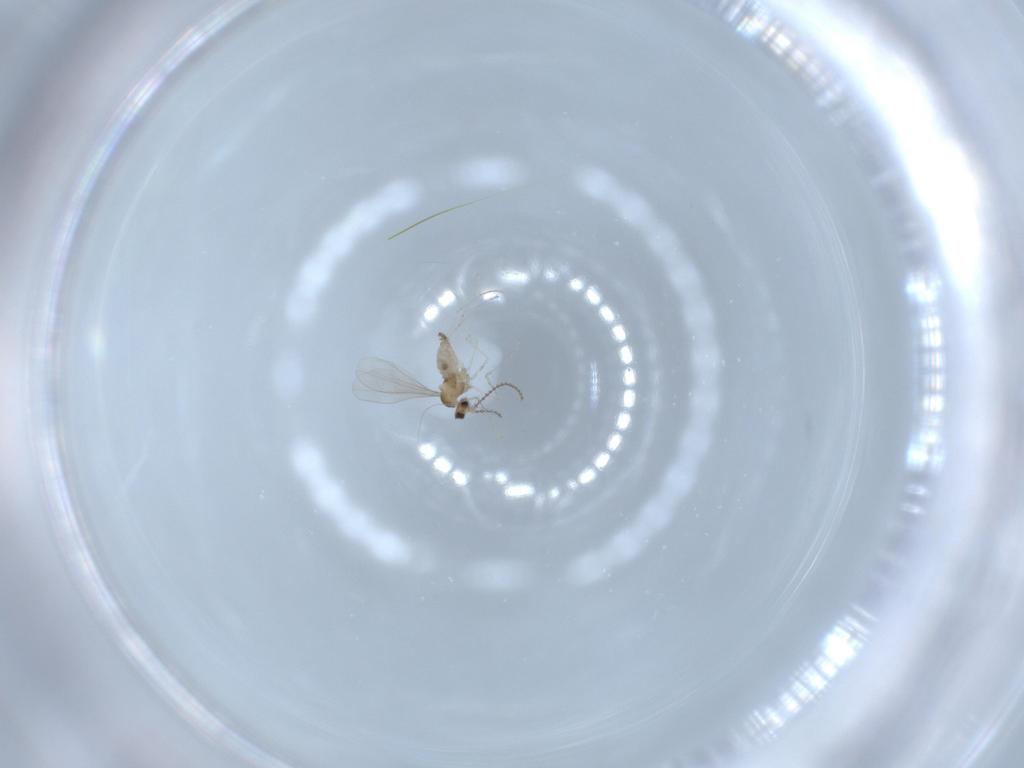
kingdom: Animalia
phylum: Arthropoda
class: Insecta
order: Diptera
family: Cecidomyiidae
